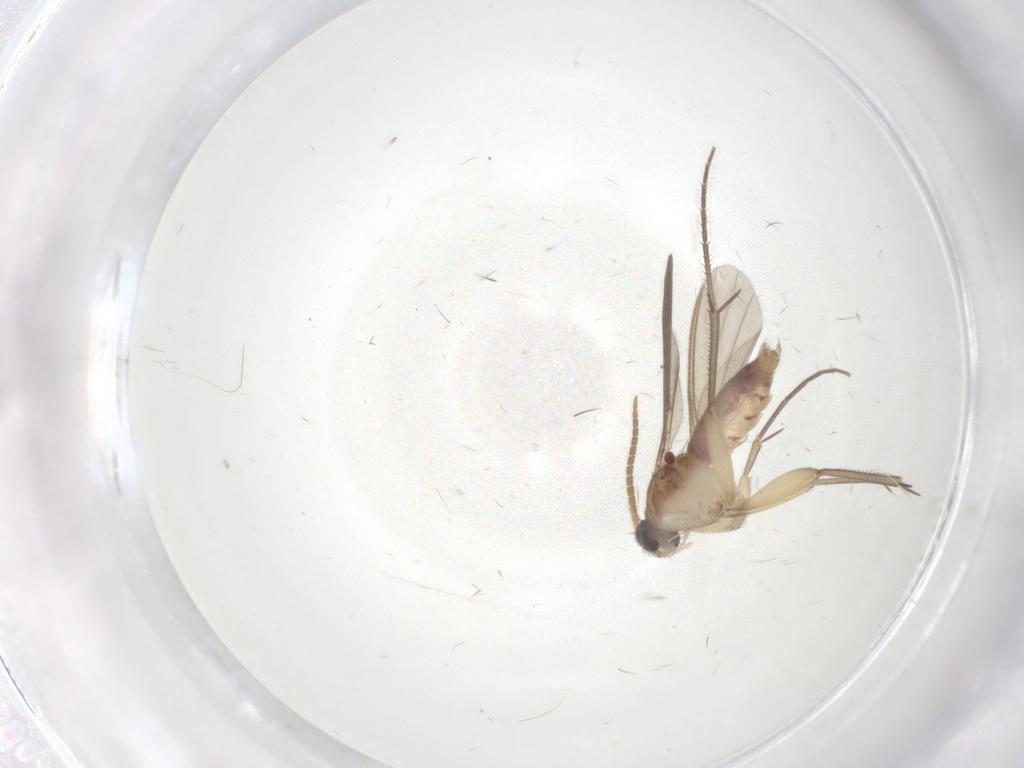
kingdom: Animalia
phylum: Arthropoda
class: Insecta
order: Diptera
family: Mycetophilidae
